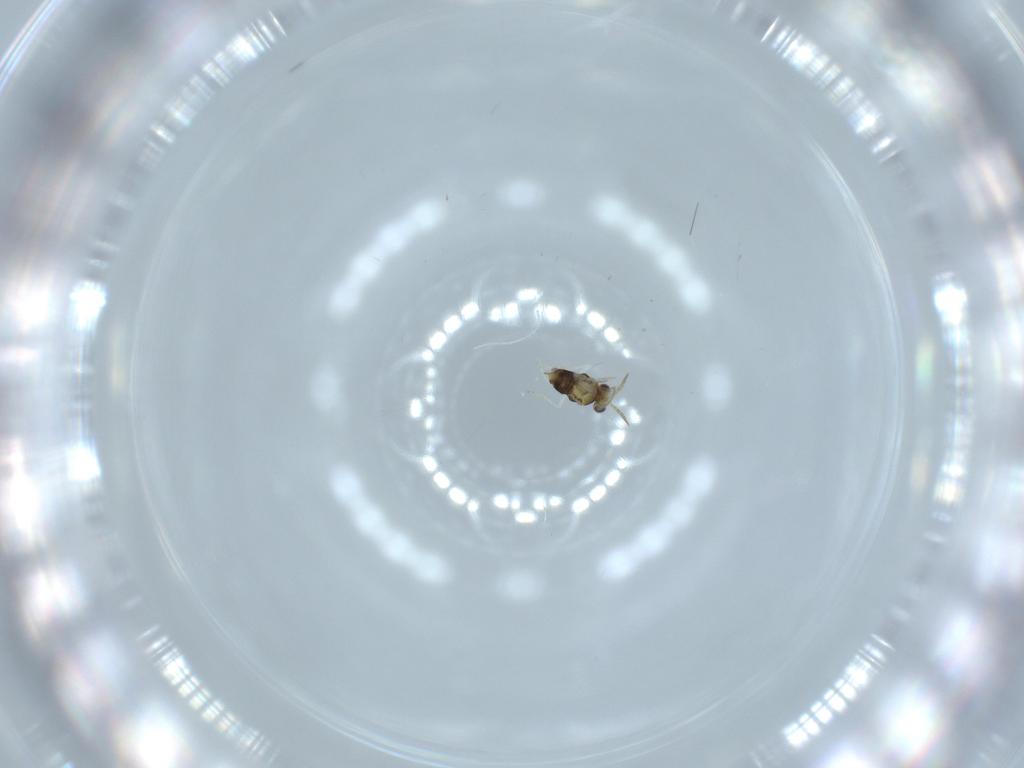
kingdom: Animalia
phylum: Arthropoda
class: Insecta
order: Hymenoptera
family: Aphelinidae
